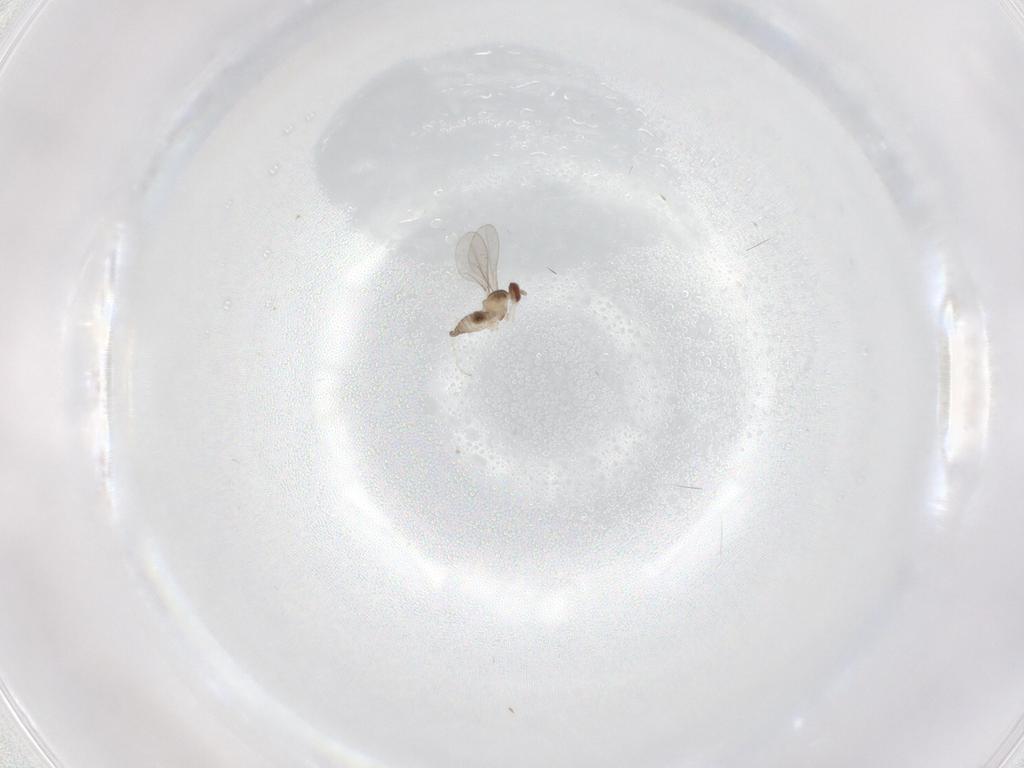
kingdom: Animalia
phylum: Arthropoda
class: Insecta
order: Diptera
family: Cecidomyiidae
